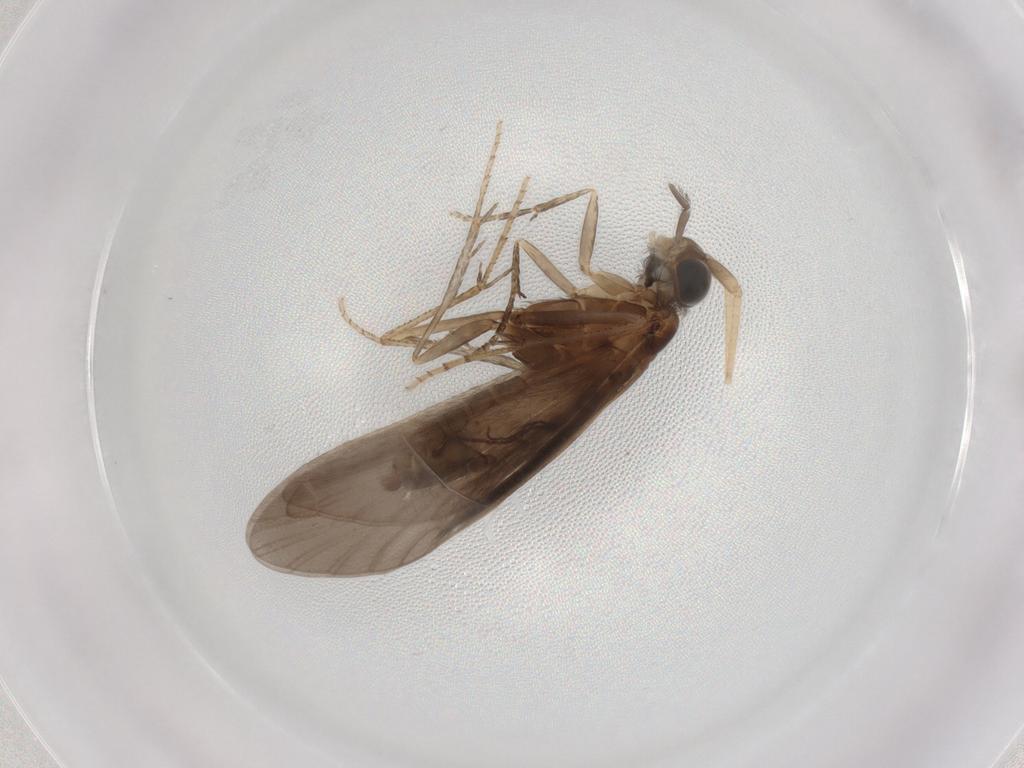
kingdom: Animalia
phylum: Arthropoda
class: Insecta
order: Trichoptera
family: Helicopsychidae
